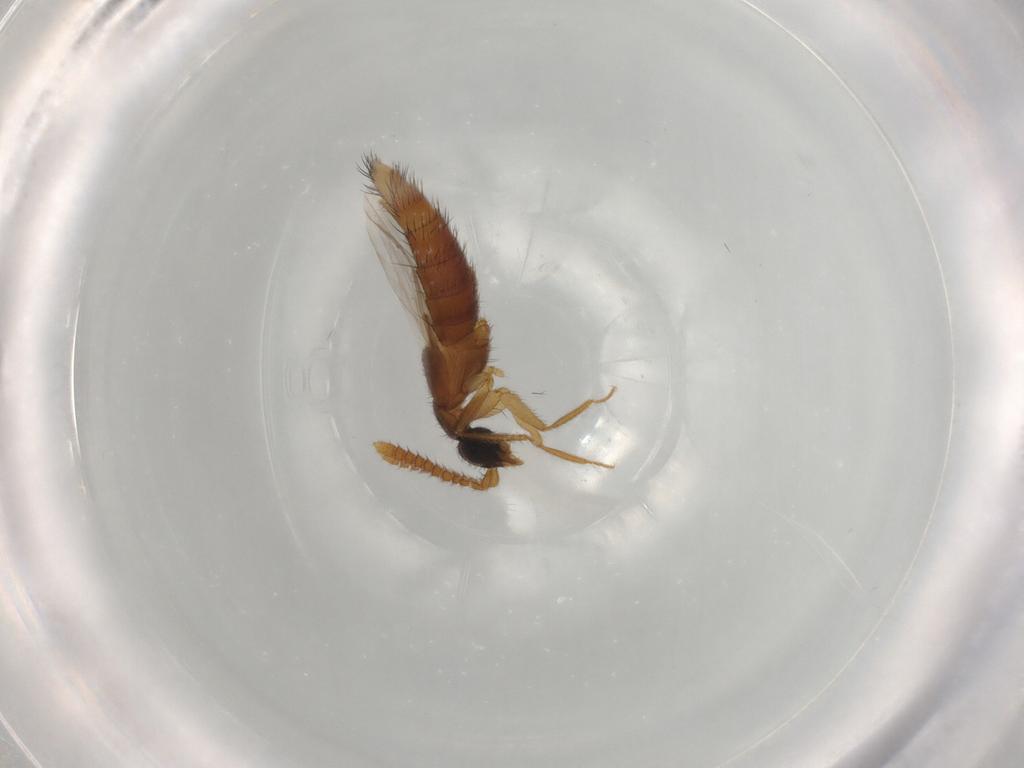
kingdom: Animalia
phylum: Arthropoda
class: Insecta
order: Coleoptera
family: Staphylinidae
